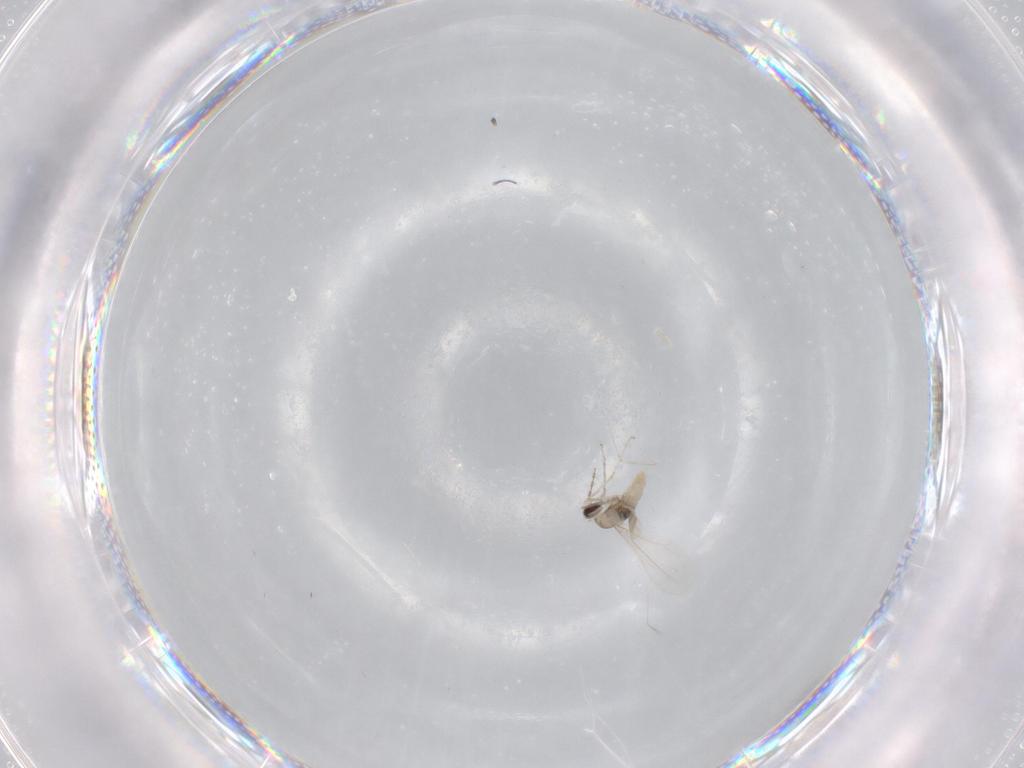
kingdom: Animalia
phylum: Arthropoda
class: Insecta
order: Diptera
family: Cecidomyiidae
